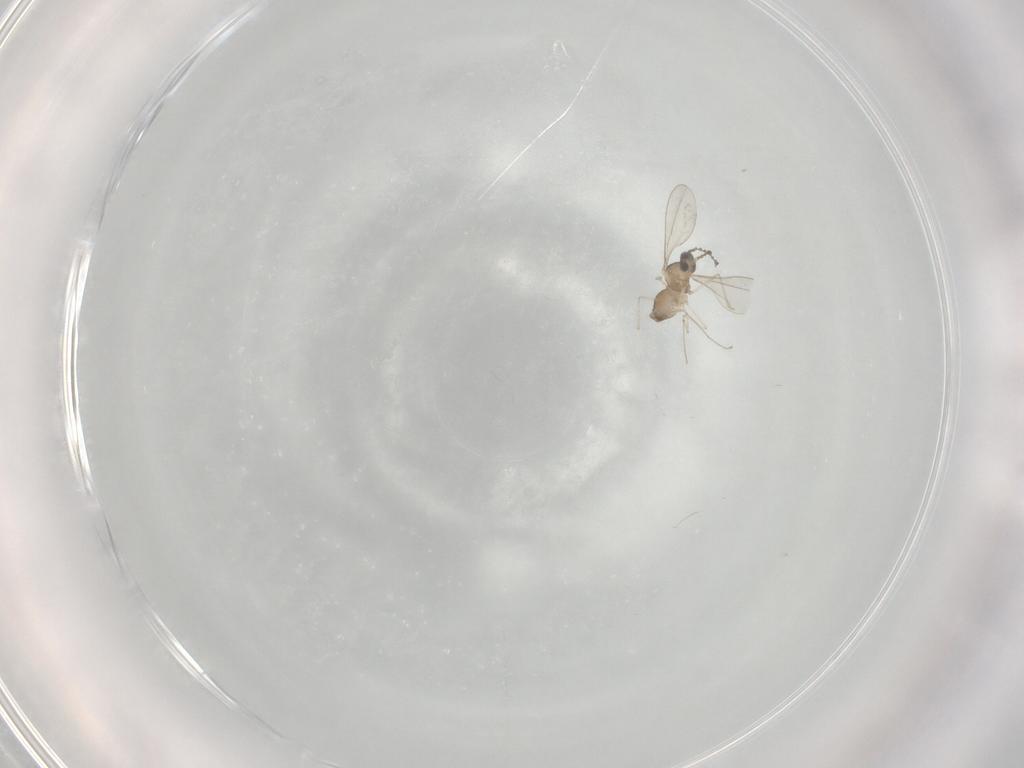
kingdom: Animalia
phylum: Arthropoda
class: Insecta
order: Diptera
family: Cecidomyiidae
